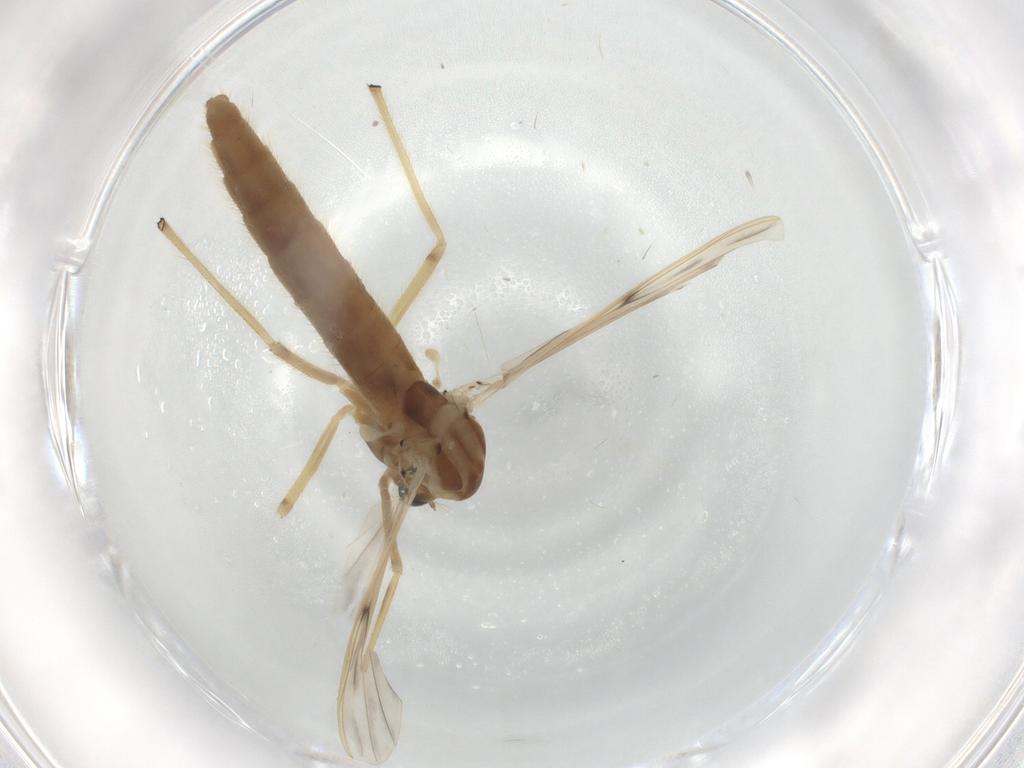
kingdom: Animalia
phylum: Arthropoda
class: Insecta
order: Diptera
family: Chironomidae
